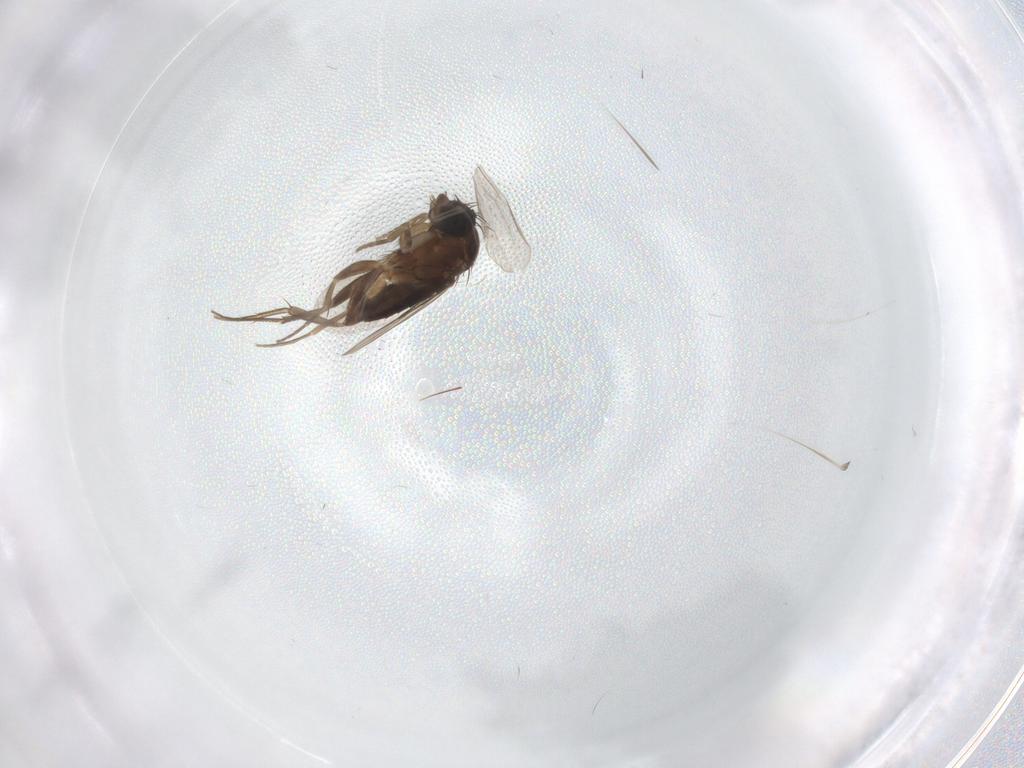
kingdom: Animalia
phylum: Arthropoda
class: Insecta
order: Diptera
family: Phoridae
